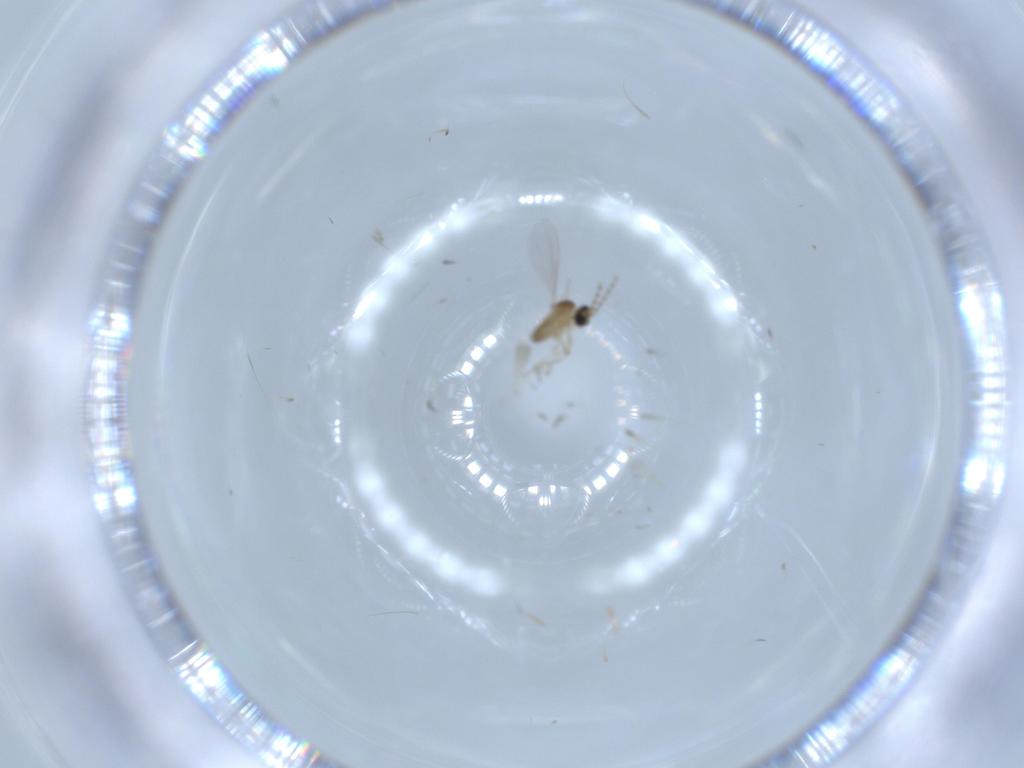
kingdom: Animalia
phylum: Arthropoda
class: Insecta
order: Diptera
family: Cecidomyiidae
